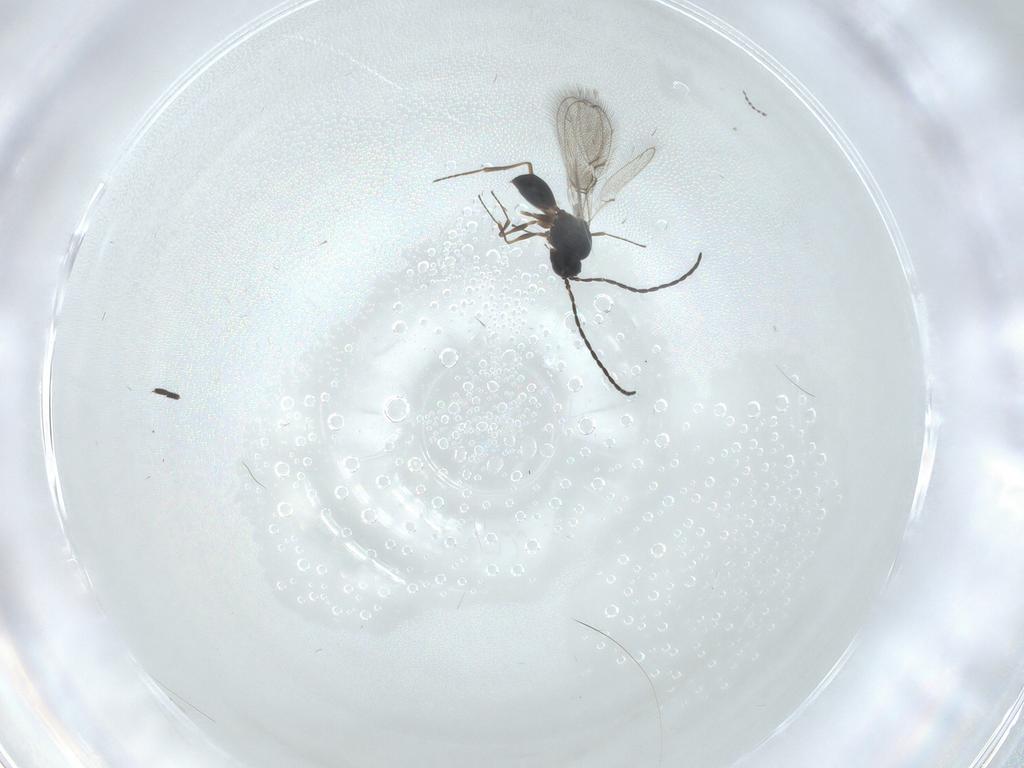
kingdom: Animalia
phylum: Arthropoda
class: Insecta
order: Hymenoptera
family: Figitidae
